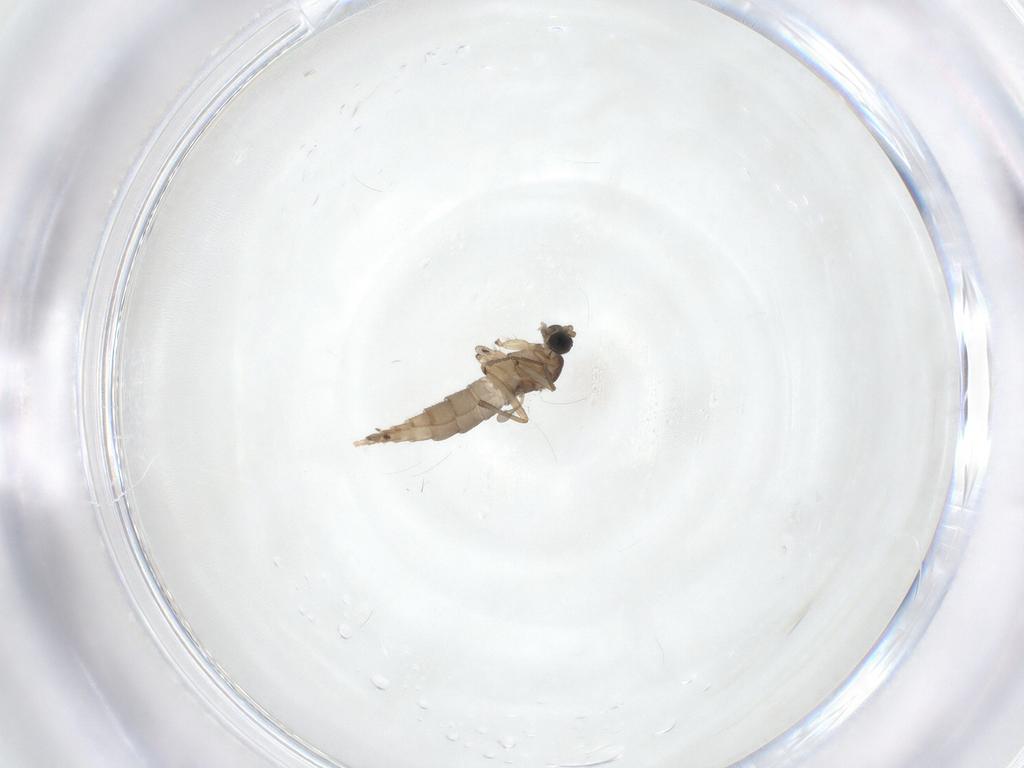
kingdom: Animalia
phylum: Arthropoda
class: Insecta
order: Diptera
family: Sciaridae
